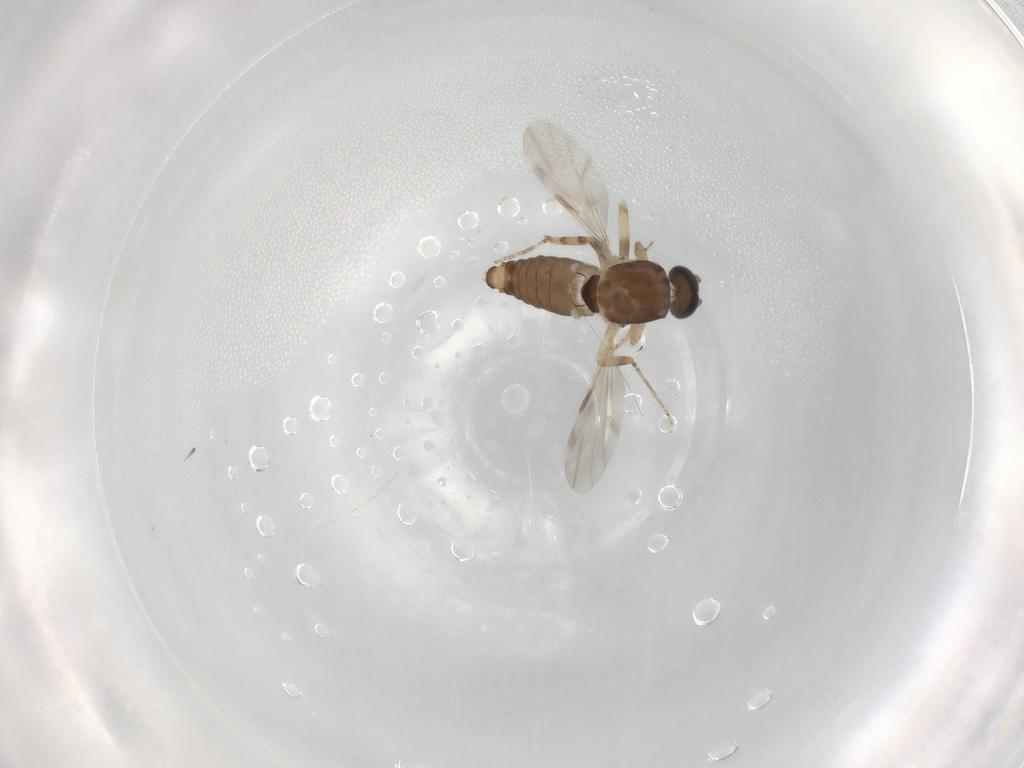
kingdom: Animalia
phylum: Arthropoda
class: Insecta
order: Diptera
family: Ceratopogonidae
